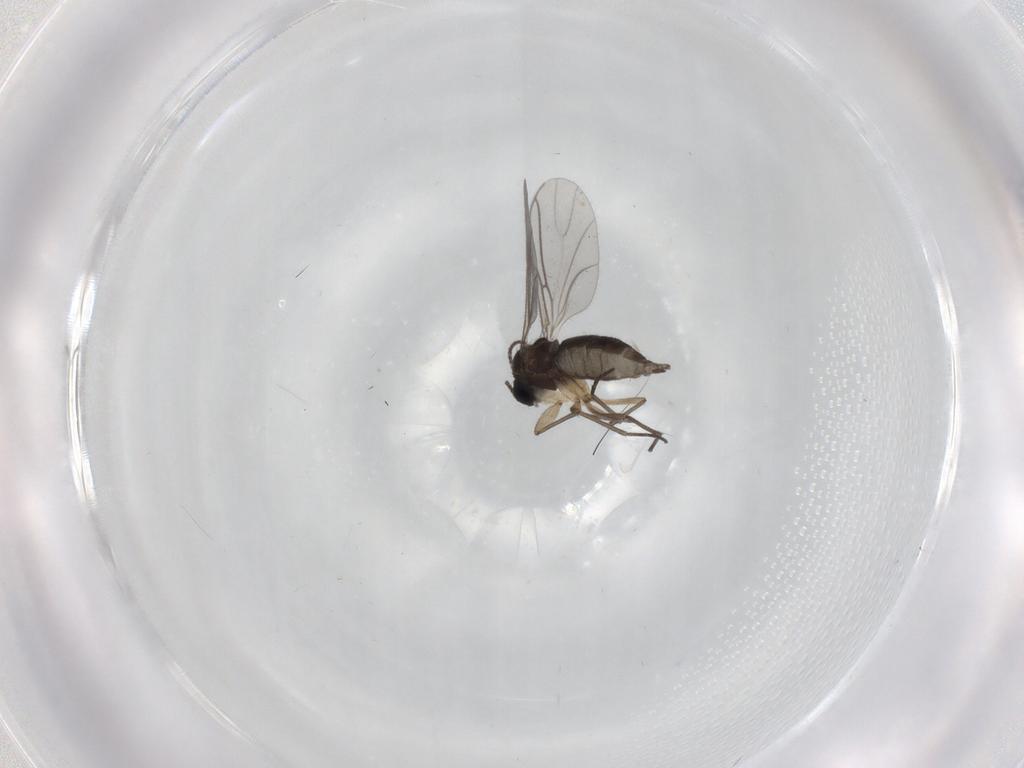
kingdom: Animalia
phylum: Arthropoda
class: Insecta
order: Diptera
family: Sciaridae
